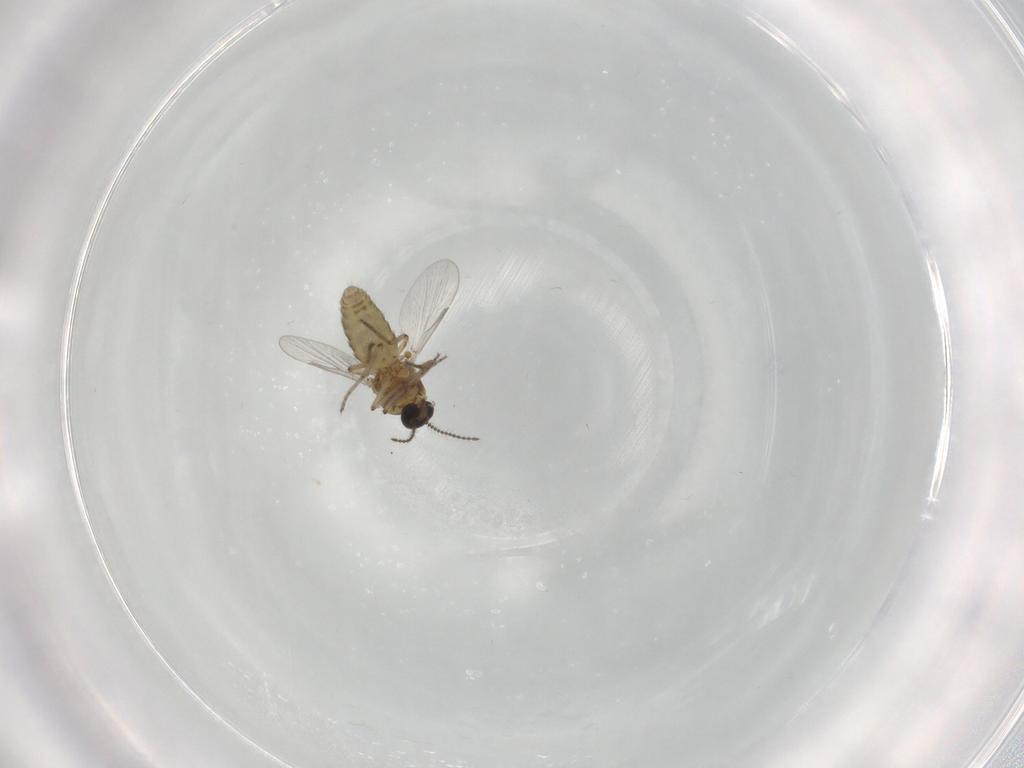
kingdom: Animalia
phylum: Arthropoda
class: Insecta
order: Diptera
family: Ceratopogonidae
